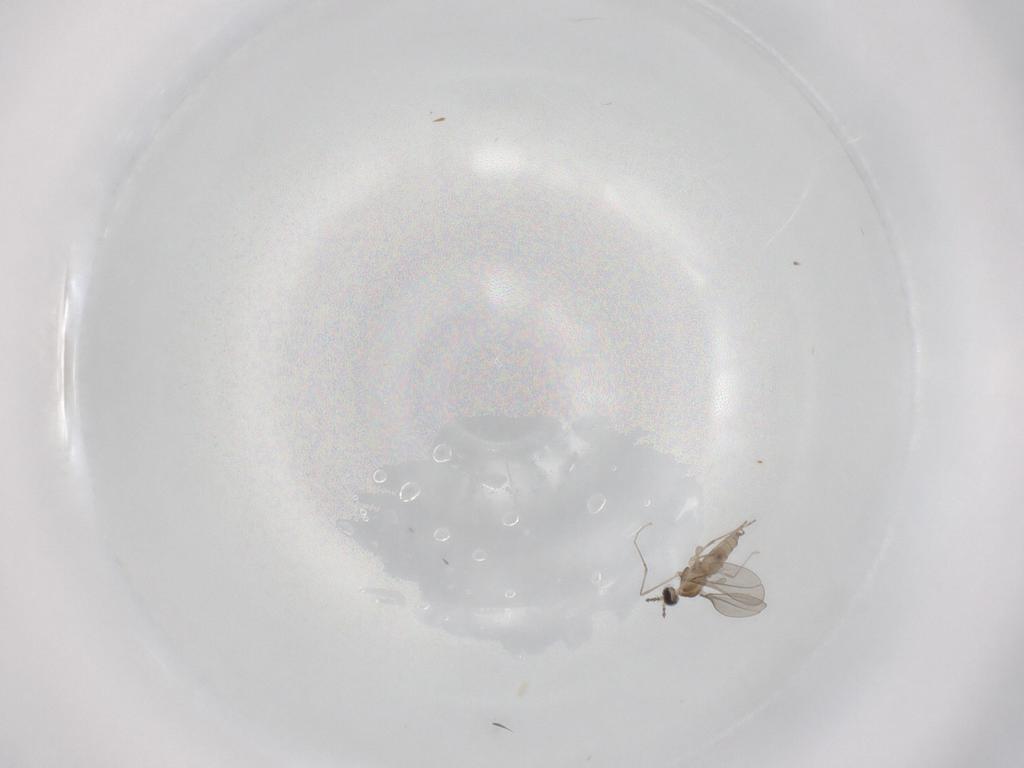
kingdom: Animalia
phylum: Arthropoda
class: Insecta
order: Diptera
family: Cecidomyiidae
